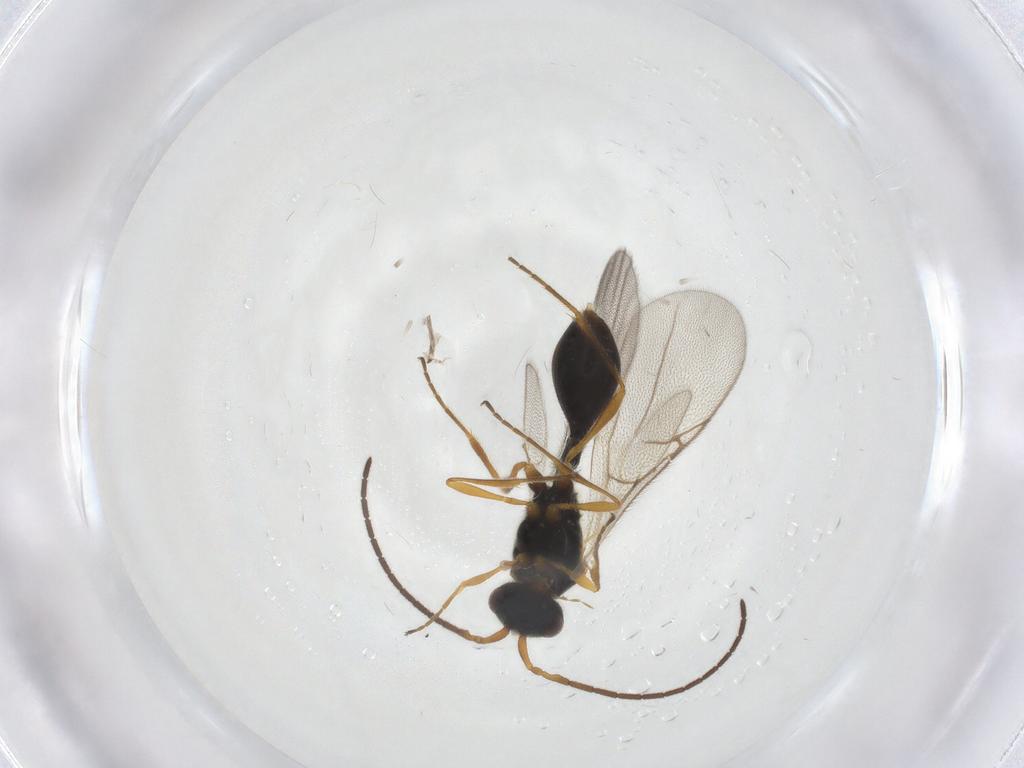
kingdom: Animalia
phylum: Arthropoda
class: Insecta
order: Hymenoptera
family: Diapriidae
